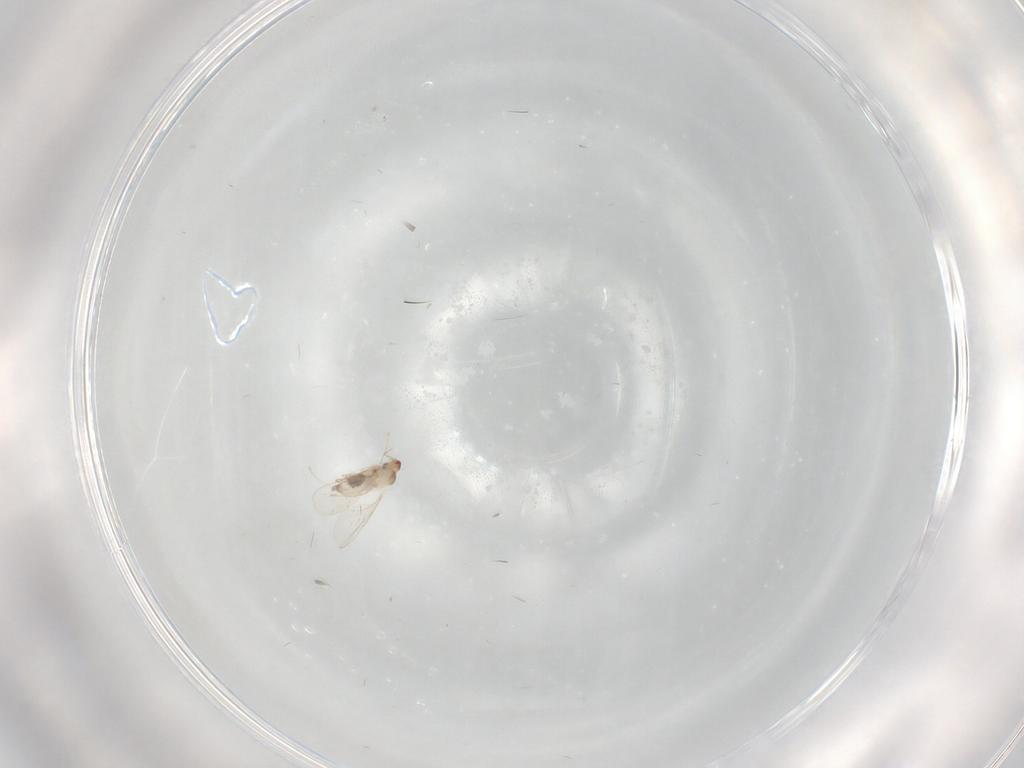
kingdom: Animalia
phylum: Arthropoda
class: Insecta
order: Diptera
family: Cecidomyiidae
